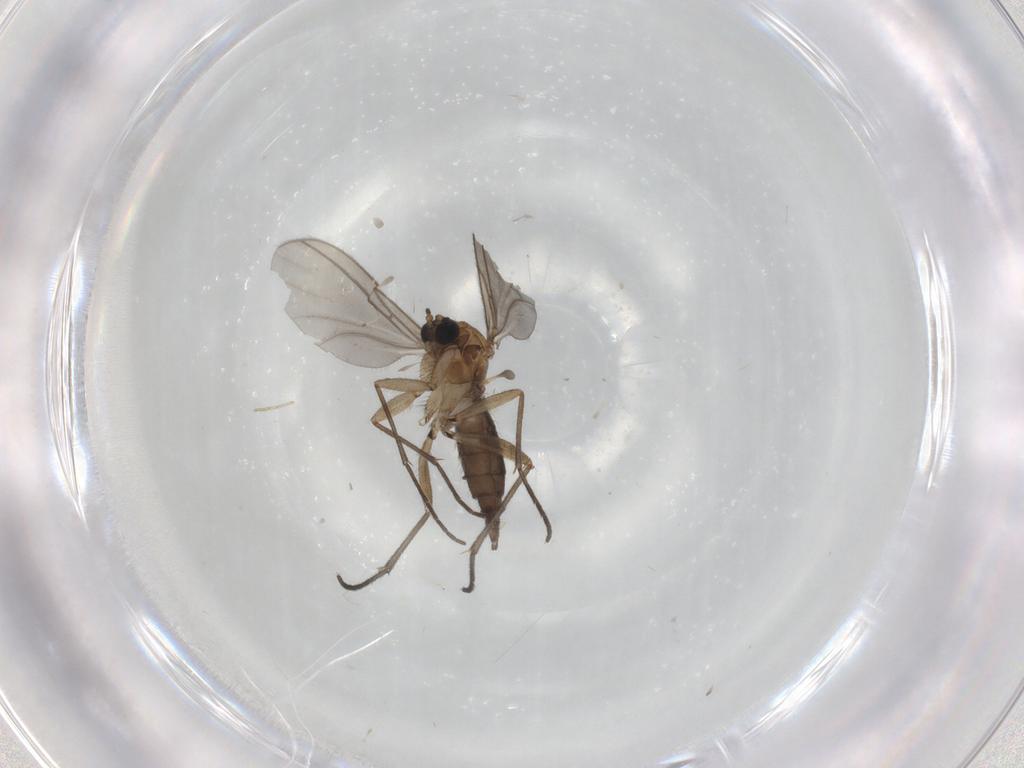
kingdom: Animalia
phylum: Arthropoda
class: Insecta
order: Diptera
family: Sciaridae
